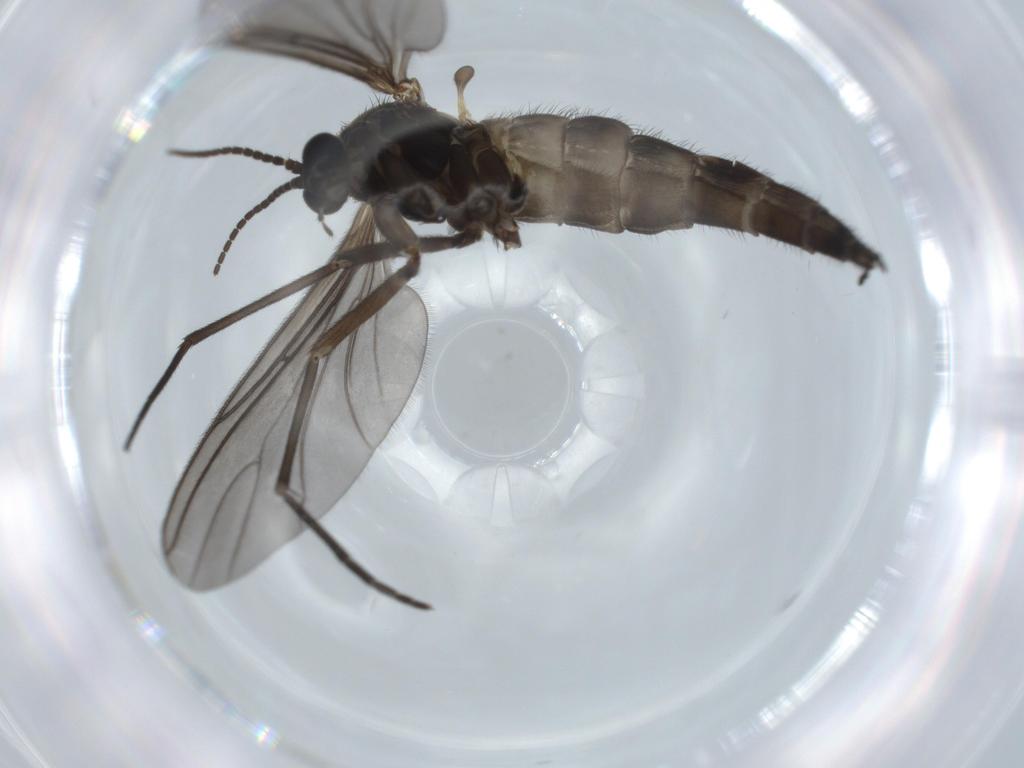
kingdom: Animalia
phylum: Arthropoda
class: Insecta
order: Diptera
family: Sciaridae
